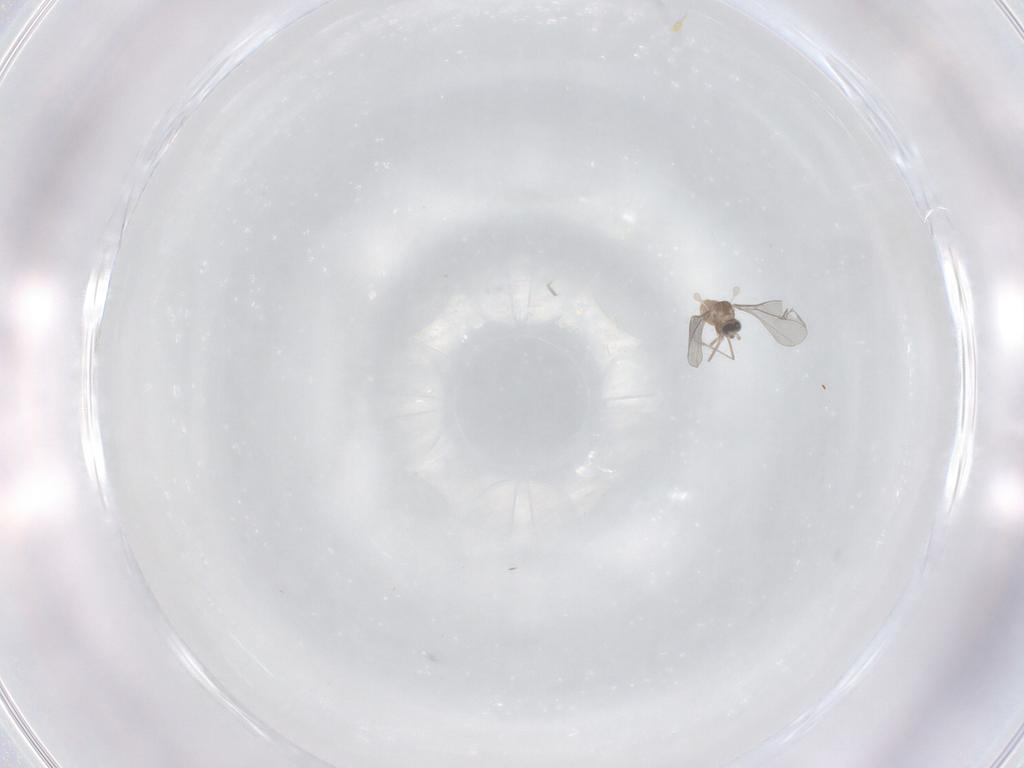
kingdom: Animalia
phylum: Arthropoda
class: Insecta
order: Diptera
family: Cecidomyiidae
